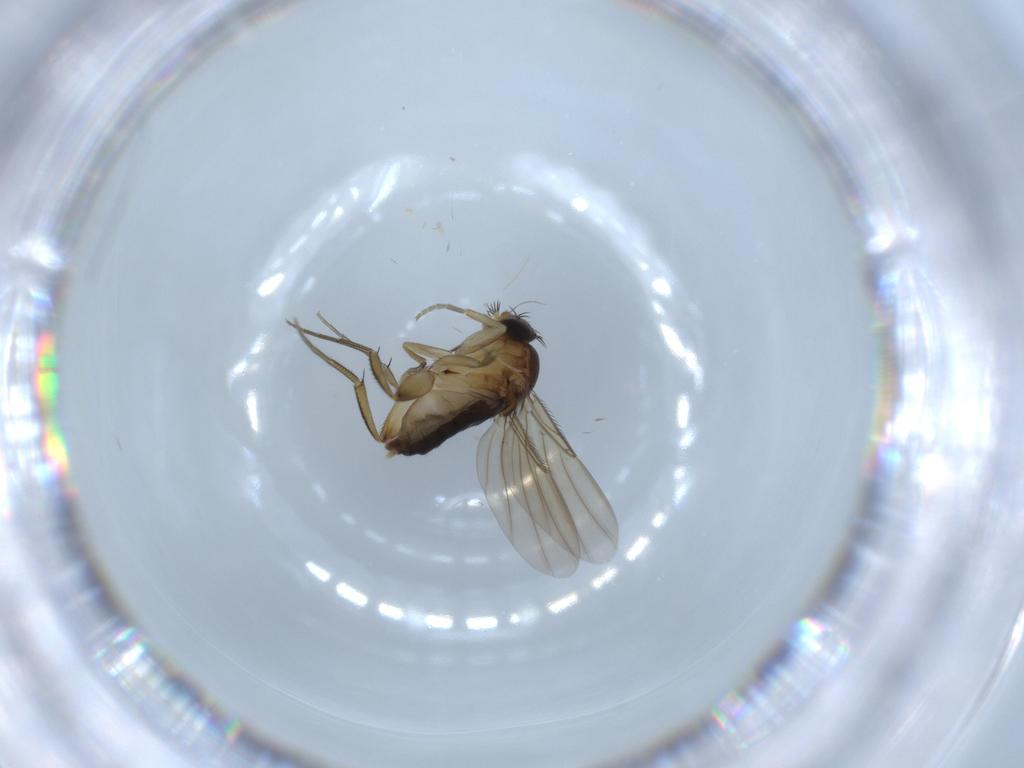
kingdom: Animalia
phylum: Arthropoda
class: Insecta
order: Diptera
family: Phoridae
